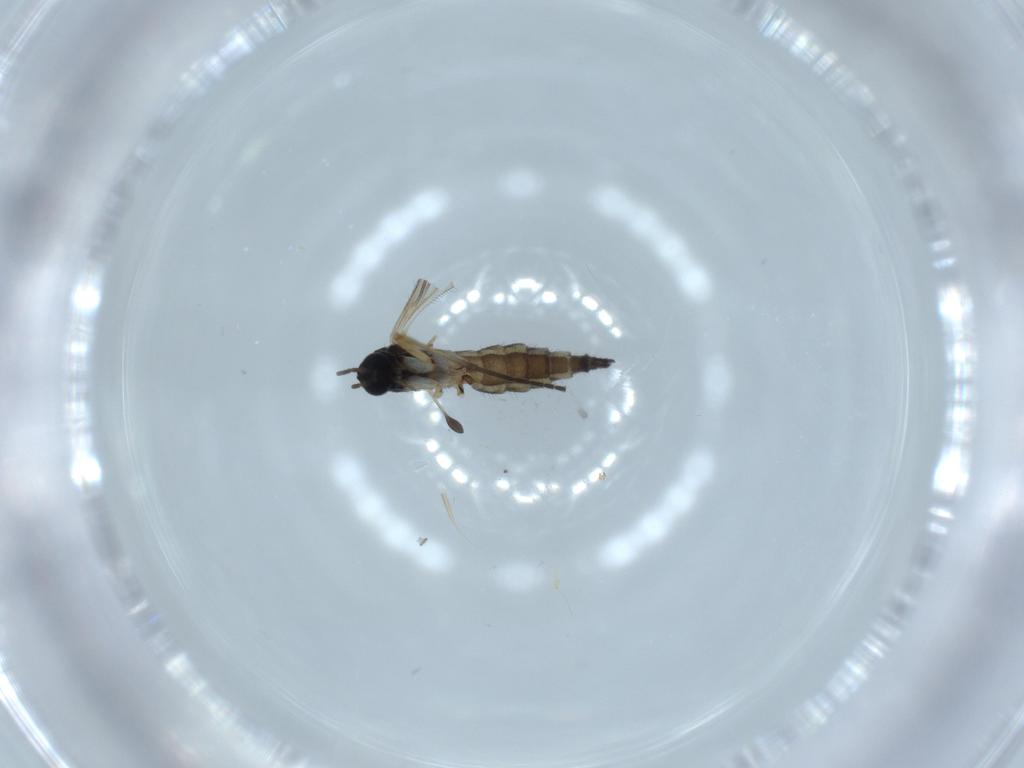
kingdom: Animalia
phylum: Arthropoda
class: Insecta
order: Diptera
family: Sciaridae
